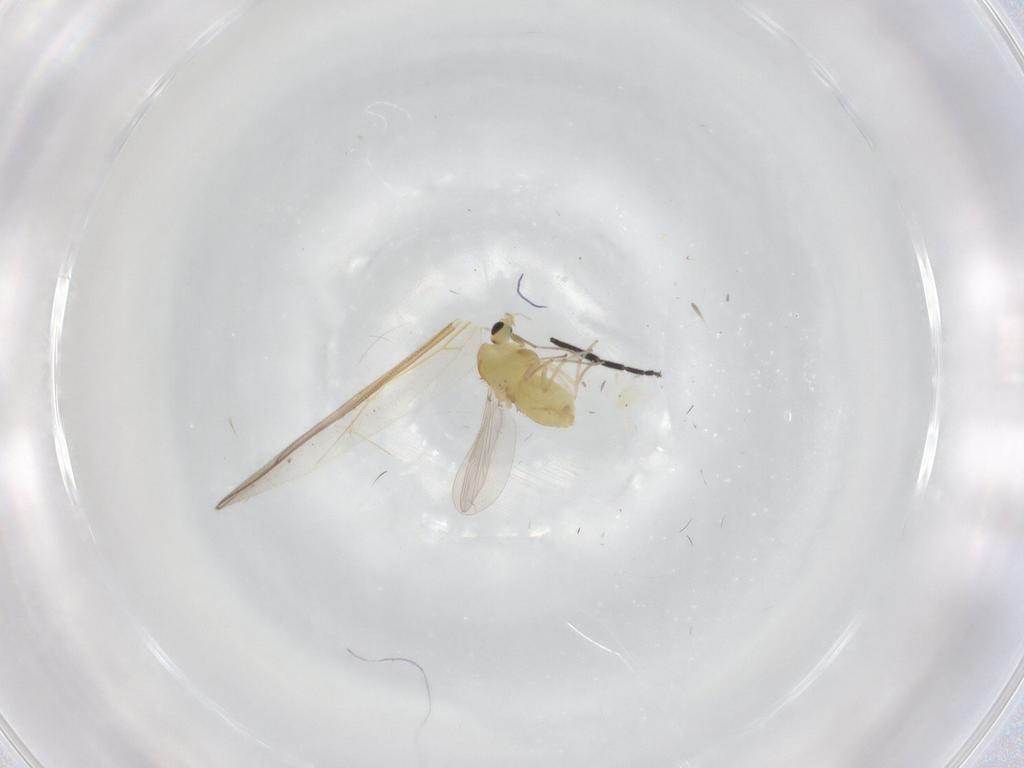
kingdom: Animalia
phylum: Arthropoda
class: Insecta
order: Diptera
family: Chironomidae
